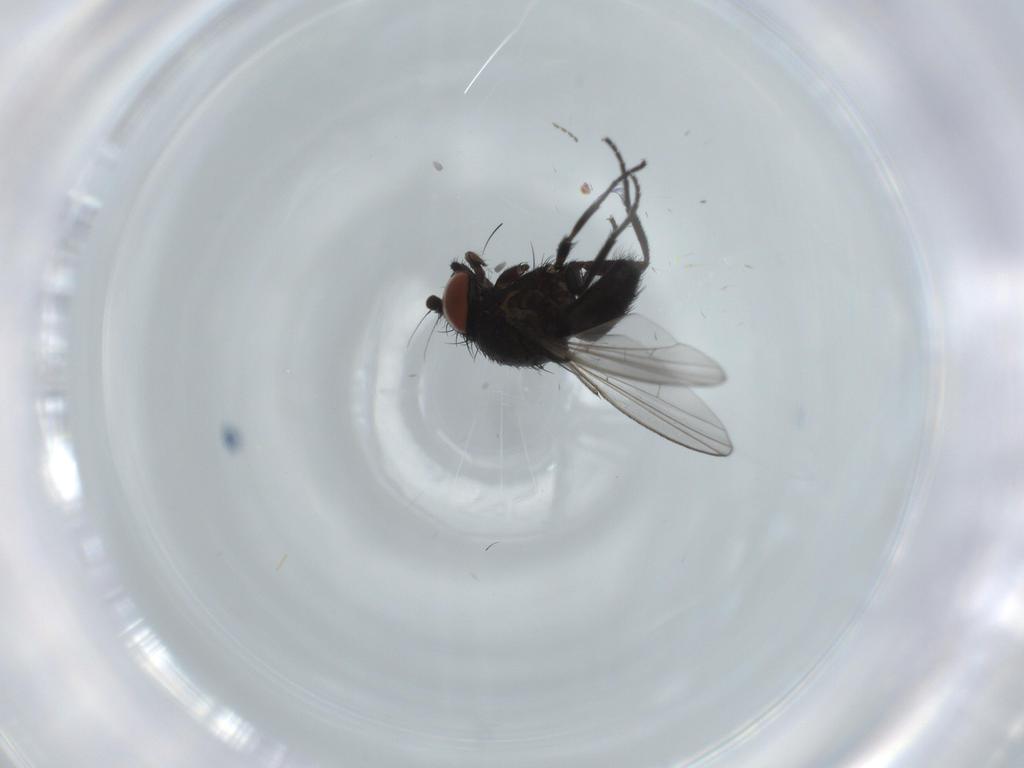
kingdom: Animalia
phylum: Arthropoda
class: Insecta
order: Diptera
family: Milichiidae
